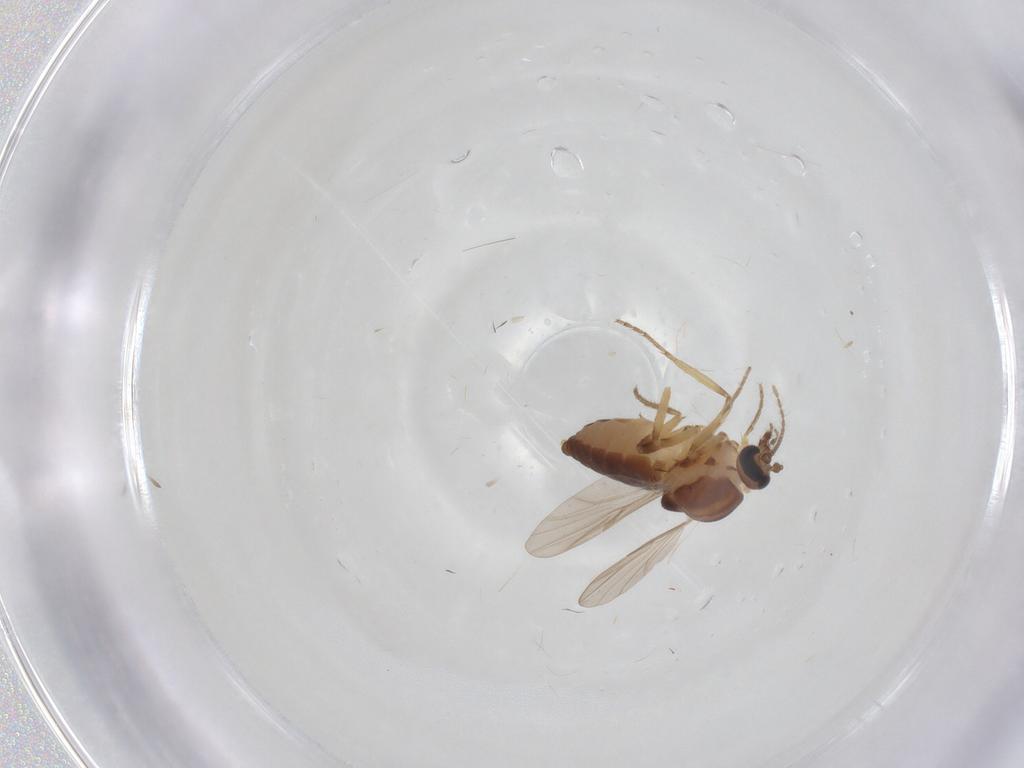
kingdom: Animalia
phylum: Arthropoda
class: Insecta
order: Diptera
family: Ceratopogonidae
